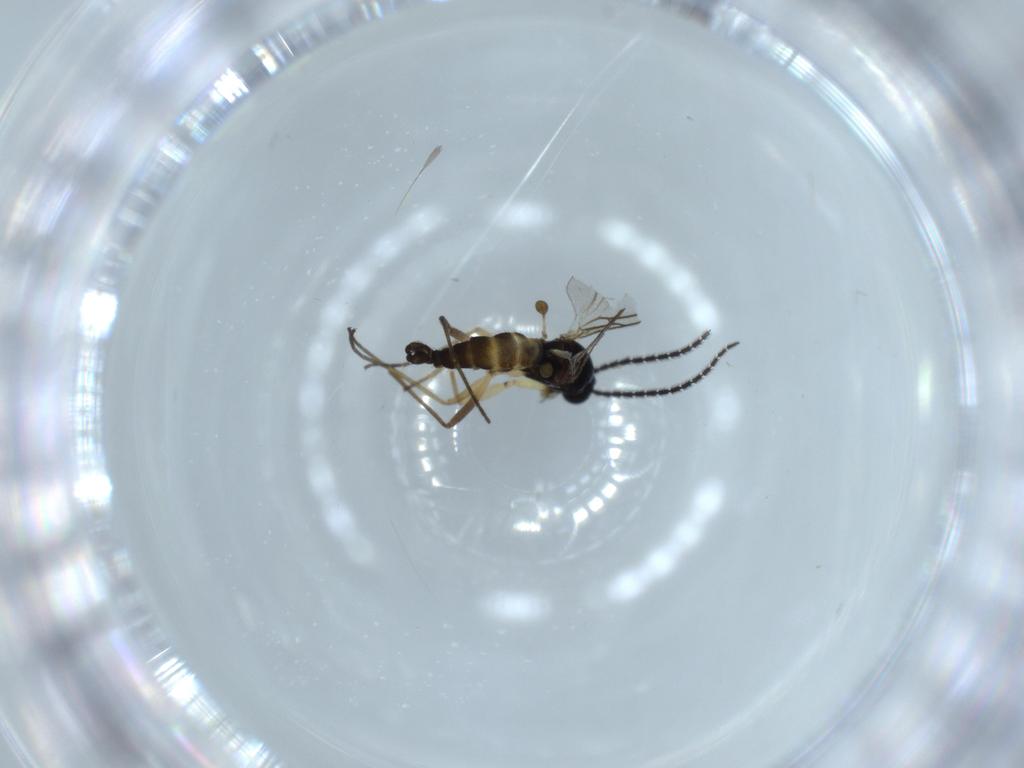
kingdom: Animalia
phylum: Arthropoda
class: Insecta
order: Diptera
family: Sciaridae
